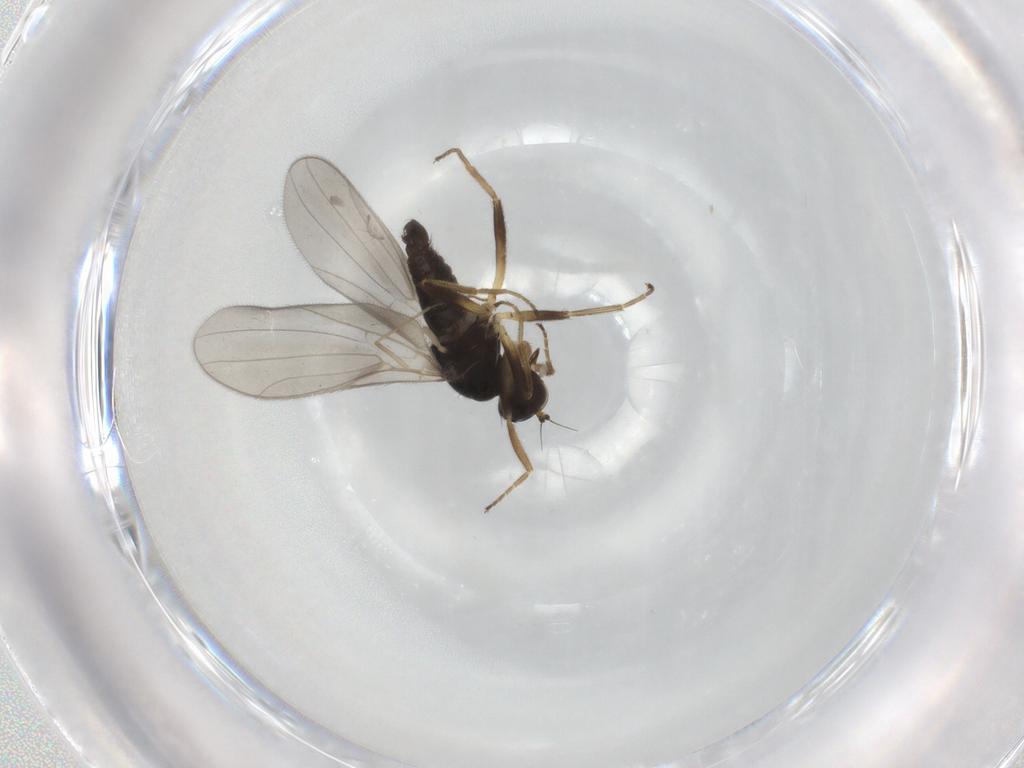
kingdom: Animalia
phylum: Arthropoda
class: Insecta
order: Diptera
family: Hybotidae
